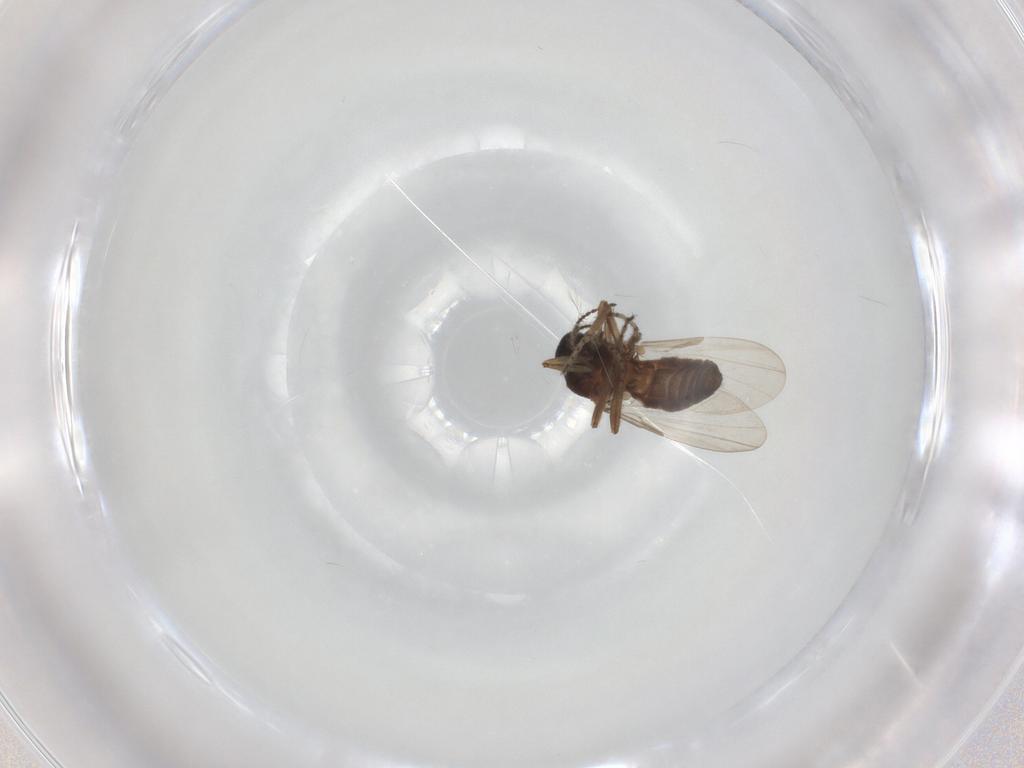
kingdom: Animalia
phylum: Arthropoda
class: Insecta
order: Diptera
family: Ceratopogonidae
